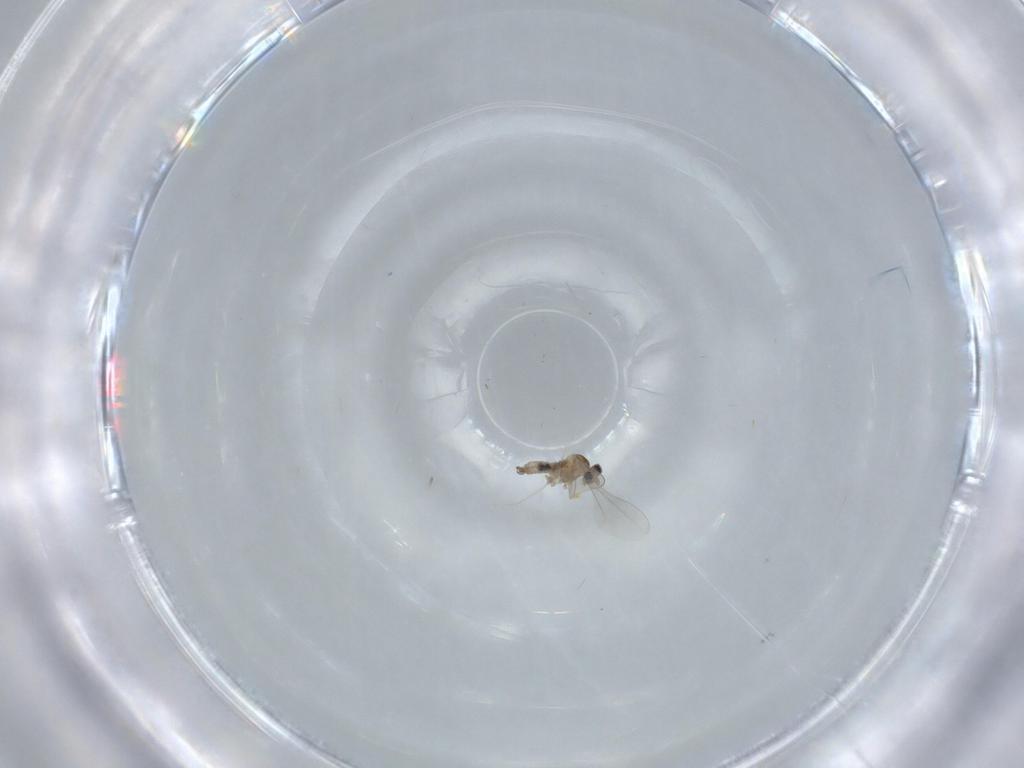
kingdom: Animalia
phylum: Arthropoda
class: Insecta
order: Diptera
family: Cecidomyiidae
